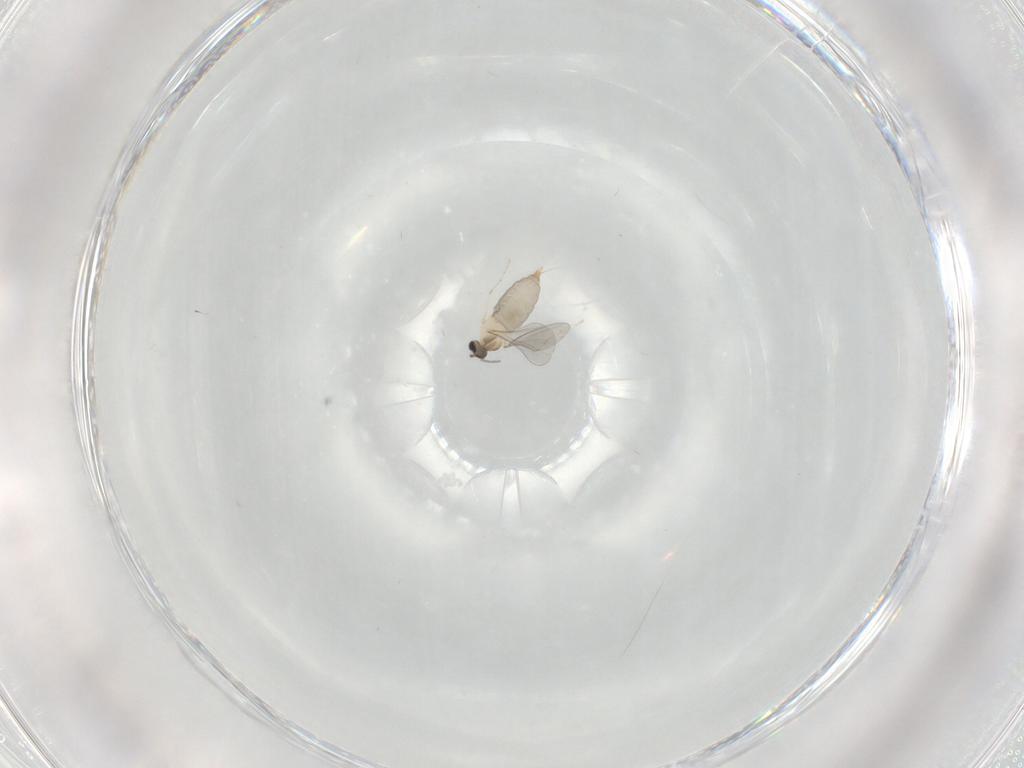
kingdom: Animalia
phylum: Arthropoda
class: Insecta
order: Diptera
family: Cecidomyiidae
